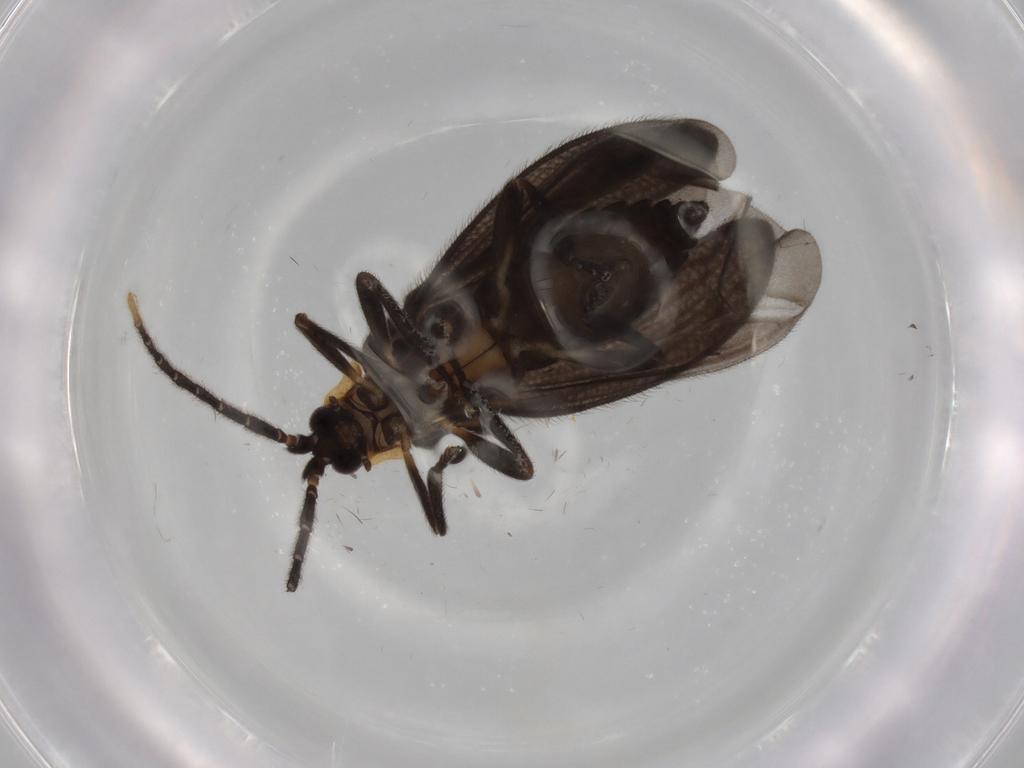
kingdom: Animalia
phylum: Arthropoda
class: Insecta
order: Coleoptera
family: Lycidae
